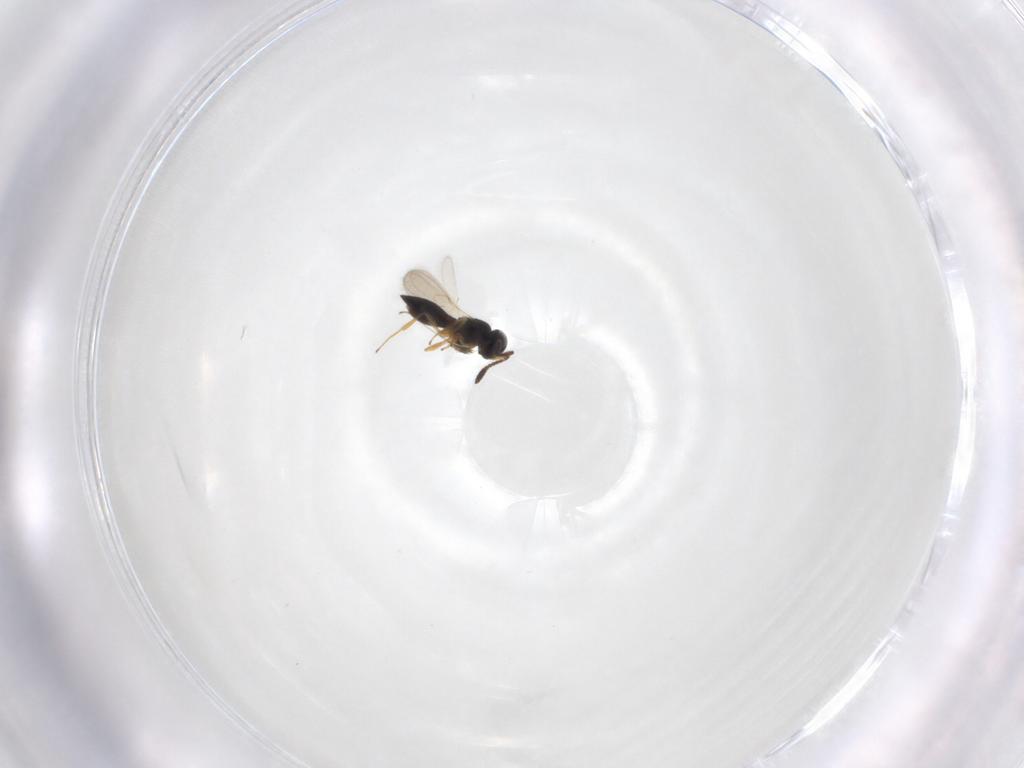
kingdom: Animalia
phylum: Arthropoda
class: Insecta
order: Hymenoptera
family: Scelionidae
